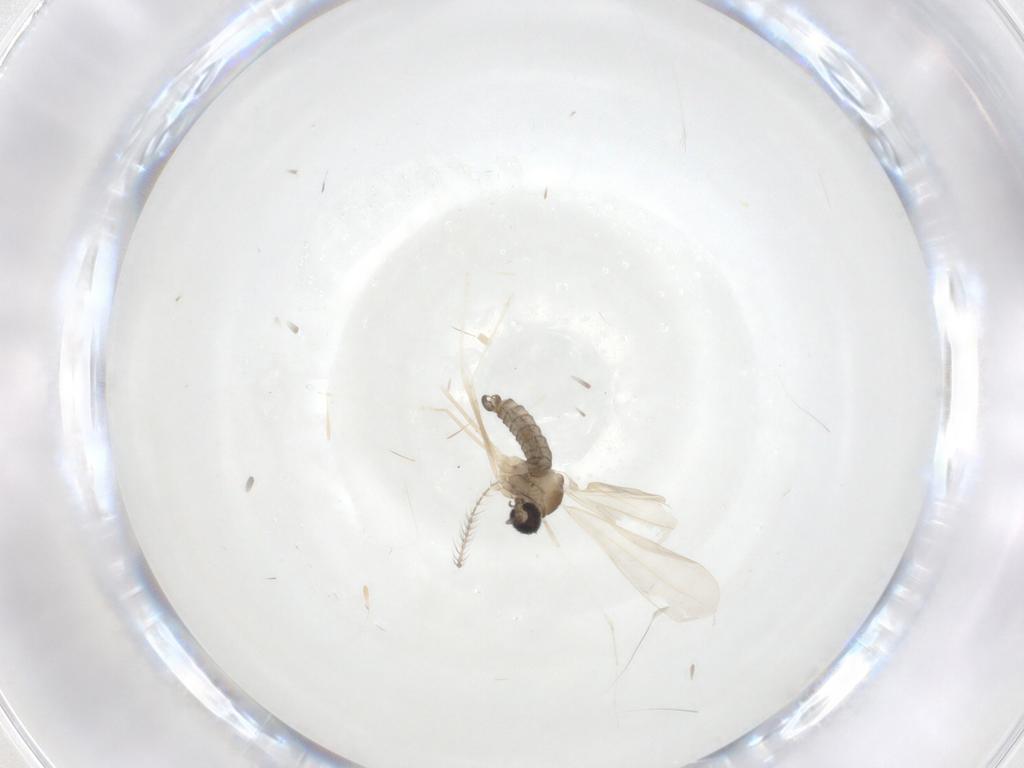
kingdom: Animalia
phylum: Arthropoda
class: Insecta
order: Diptera
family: Cecidomyiidae
